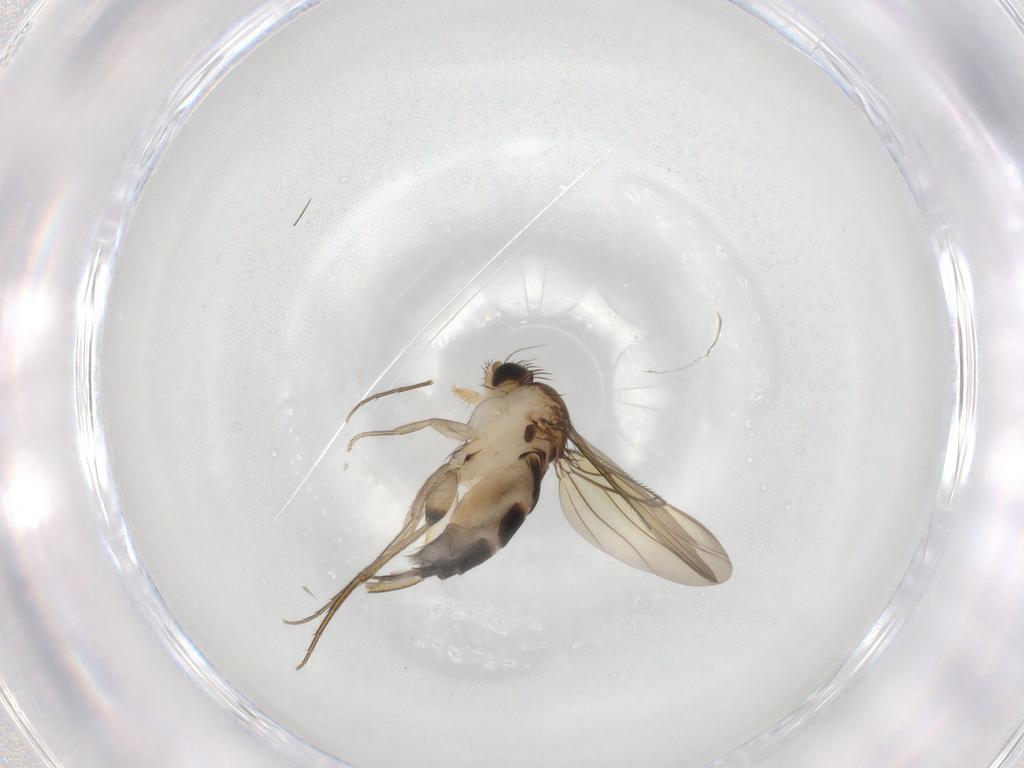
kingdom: Animalia
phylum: Arthropoda
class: Insecta
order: Diptera
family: Phoridae
